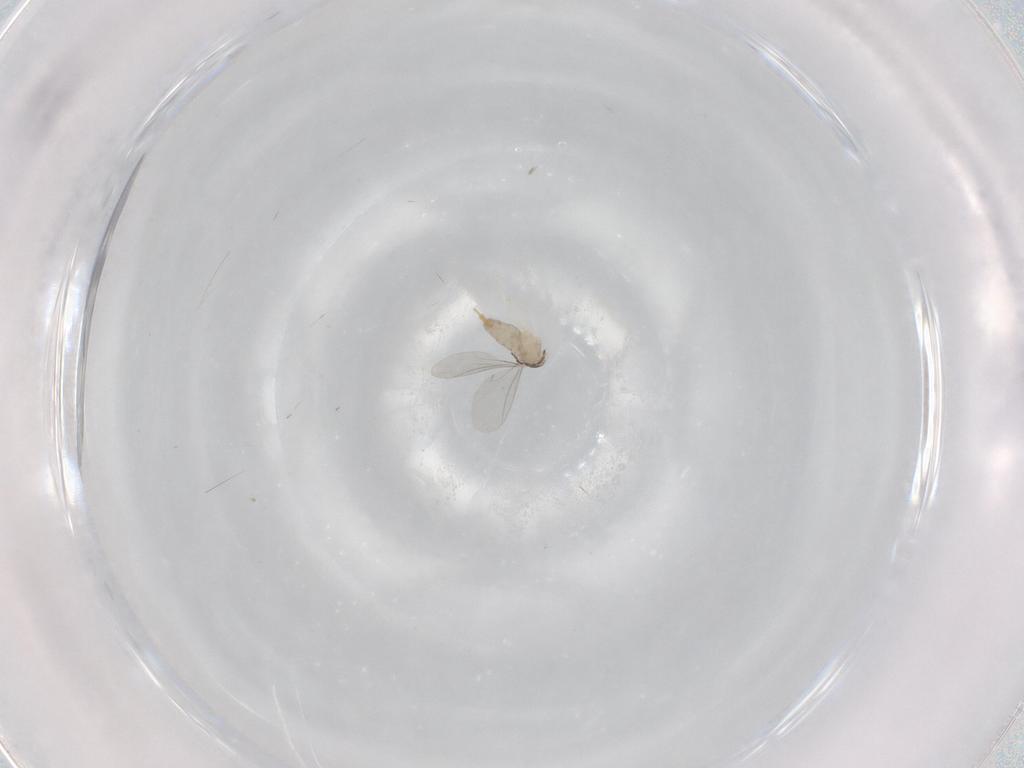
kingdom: Animalia
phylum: Arthropoda
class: Insecta
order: Diptera
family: Cecidomyiidae
